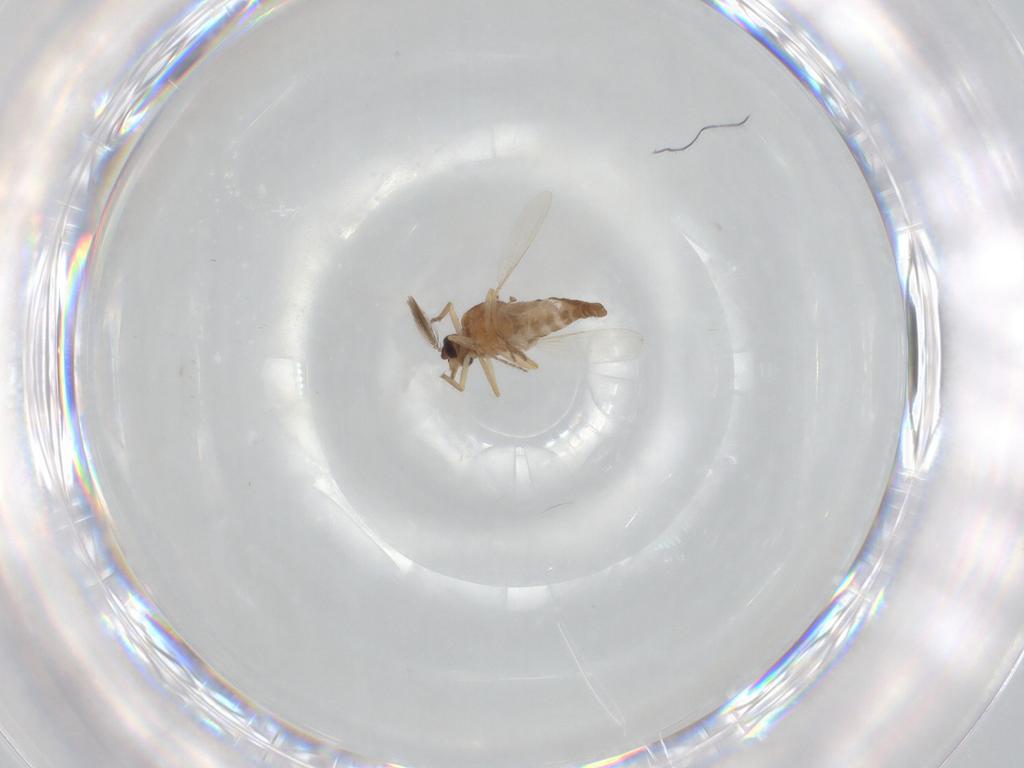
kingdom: Animalia
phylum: Arthropoda
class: Insecta
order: Diptera
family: Ceratopogonidae
